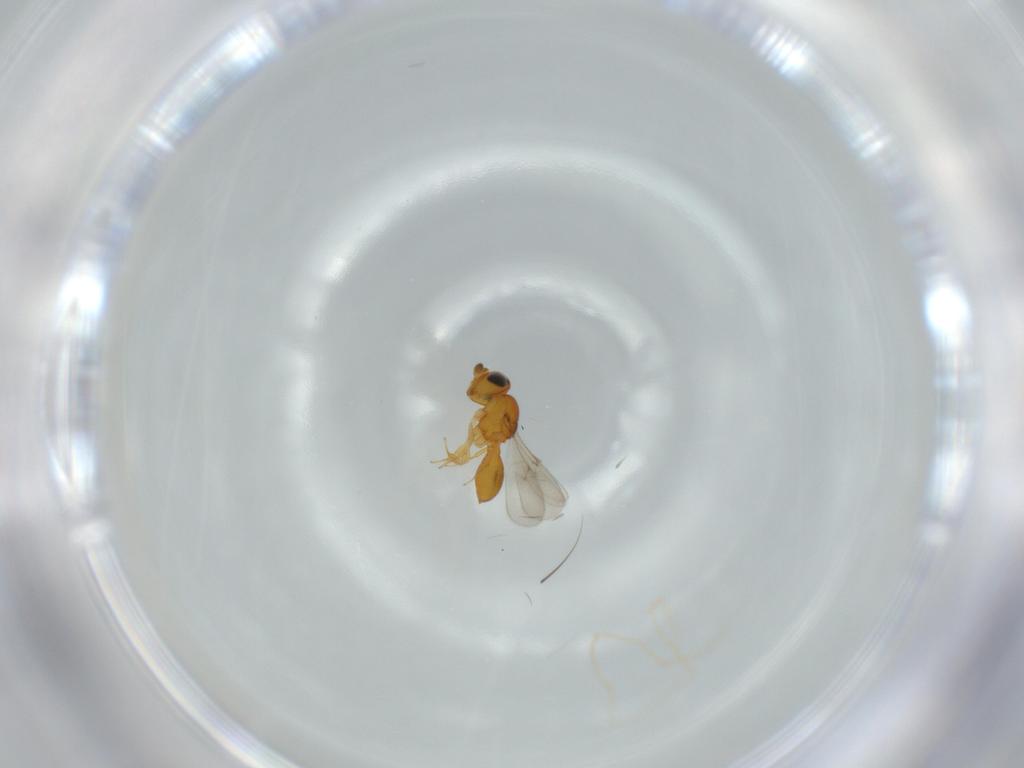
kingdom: Animalia
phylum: Arthropoda
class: Insecta
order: Hymenoptera
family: Scelionidae
